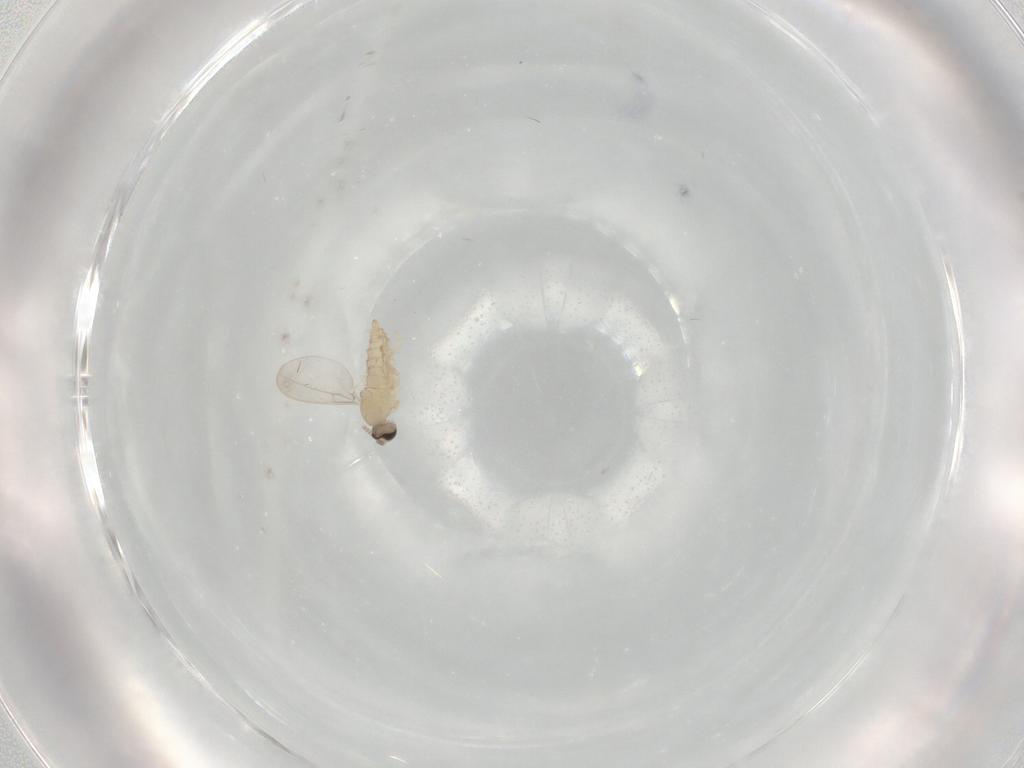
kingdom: Animalia
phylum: Arthropoda
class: Insecta
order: Diptera
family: Cecidomyiidae
